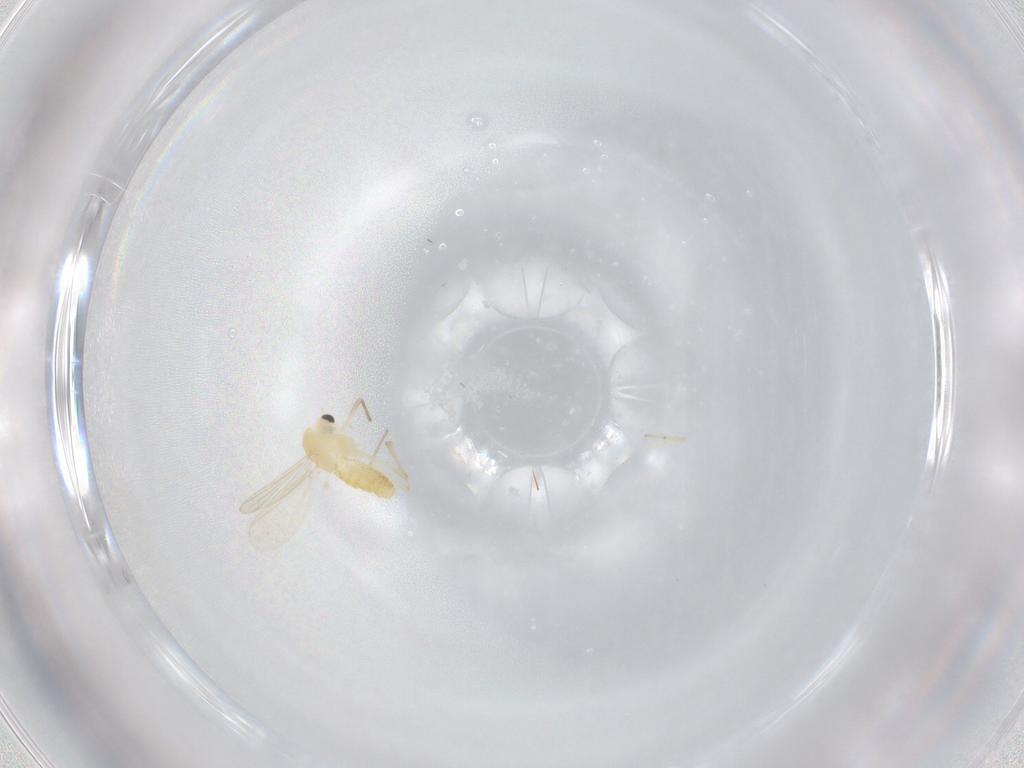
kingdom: Animalia
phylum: Arthropoda
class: Insecta
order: Diptera
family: Chironomidae
